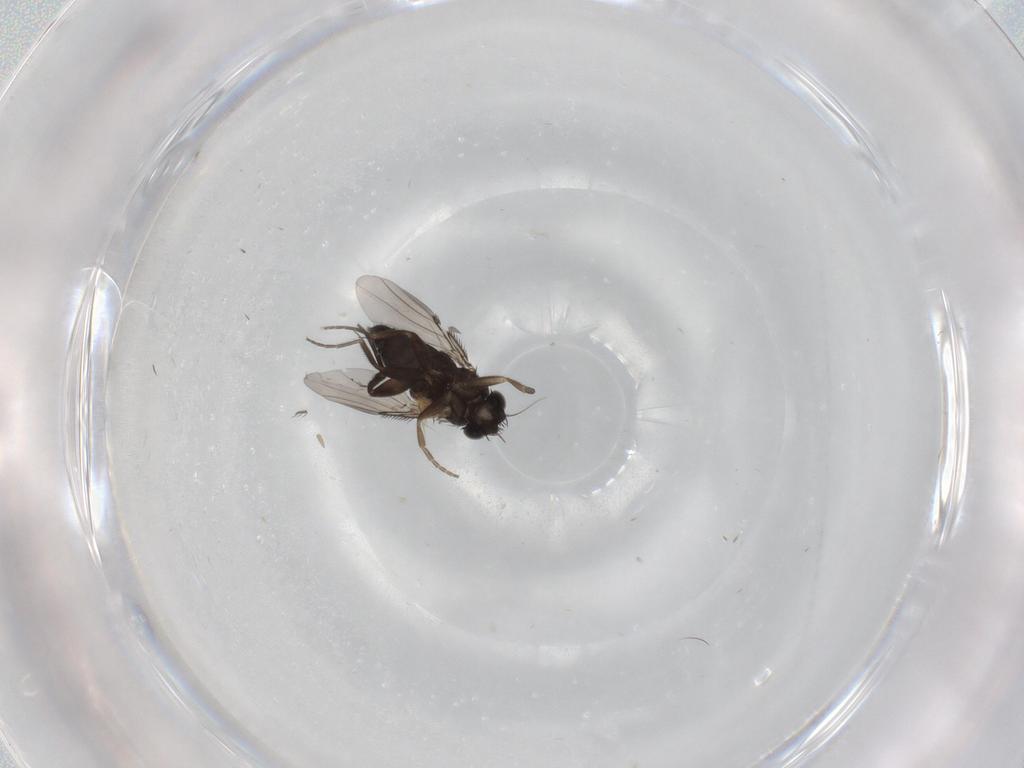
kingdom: Animalia
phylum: Arthropoda
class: Insecta
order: Diptera
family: Phoridae
